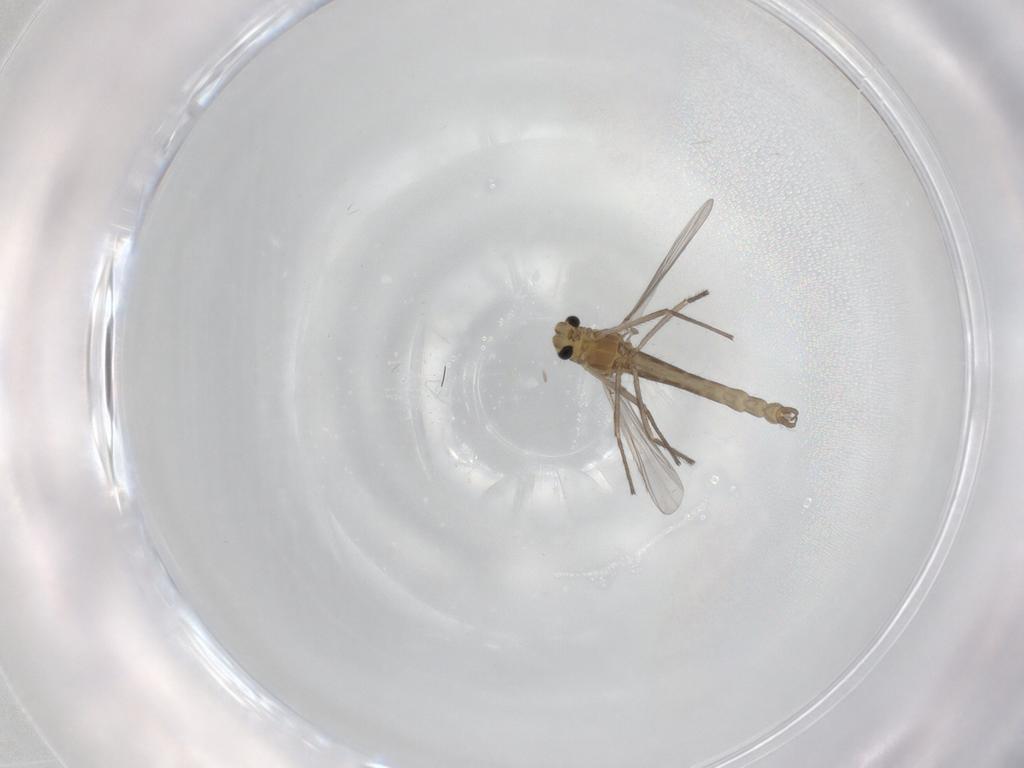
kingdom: Animalia
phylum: Arthropoda
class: Insecta
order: Diptera
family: Chironomidae
